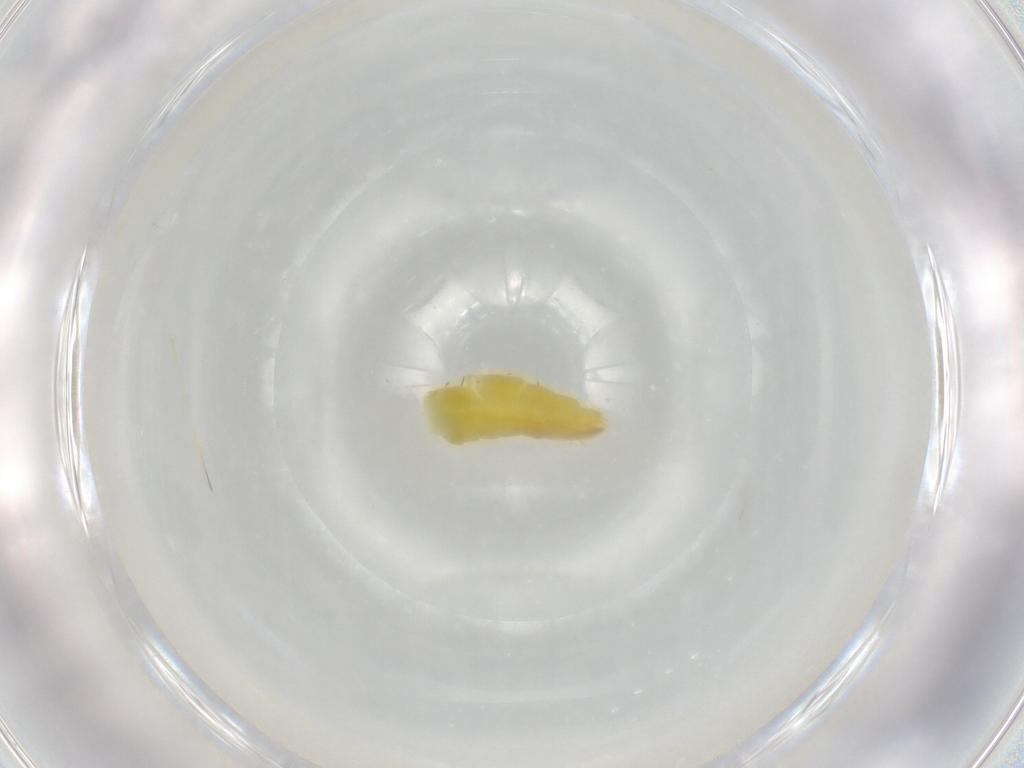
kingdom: Animalia
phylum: Arthropoda
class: Insecta
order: Hemiptera
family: Cicadellidae
